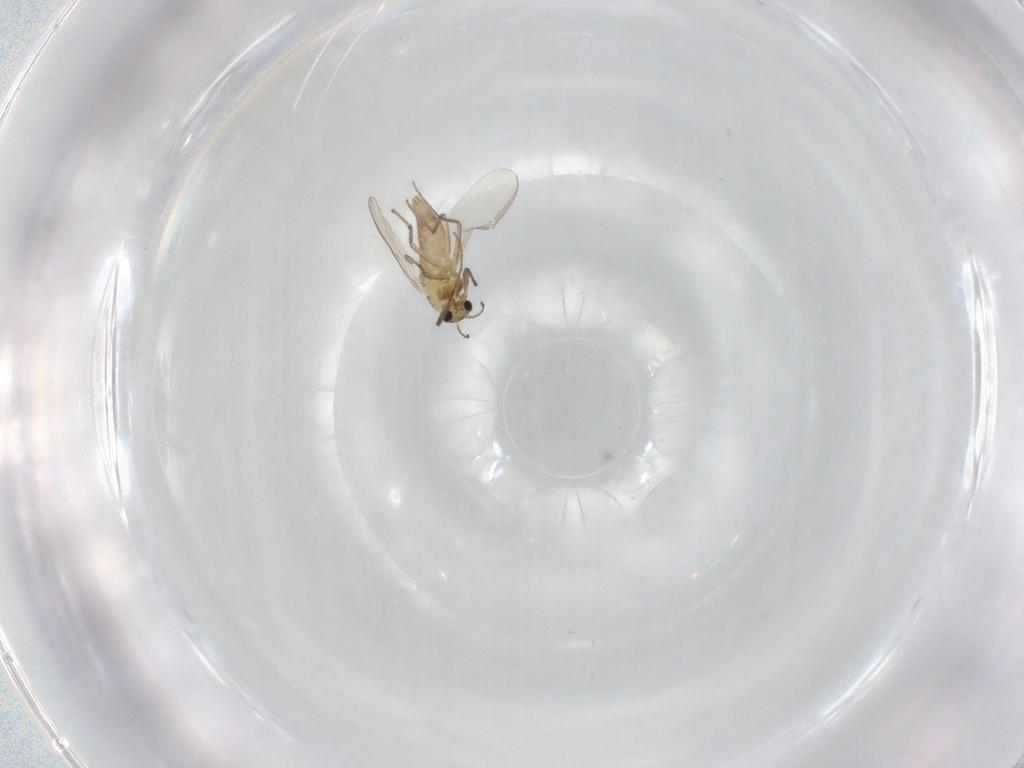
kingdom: Animalia
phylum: Arthropoda
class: Insecta
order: Diptera
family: Chironomidae
